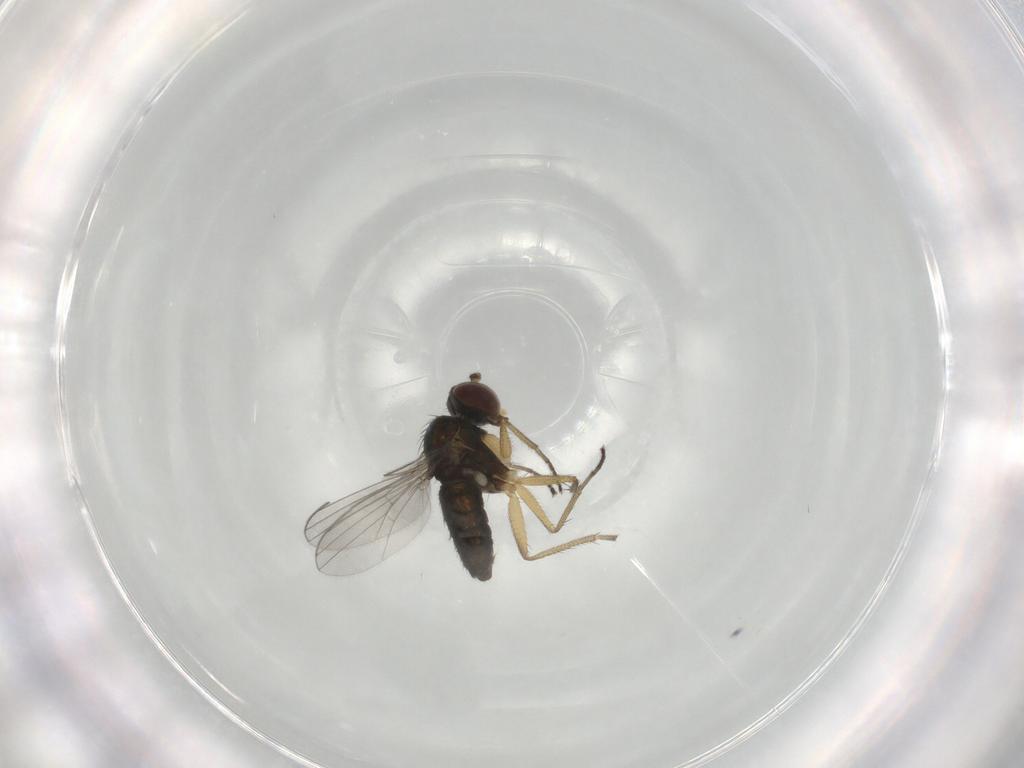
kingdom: Animalia
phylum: Arthropoda
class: Insecta
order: Diptera
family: Dolichopodidae
